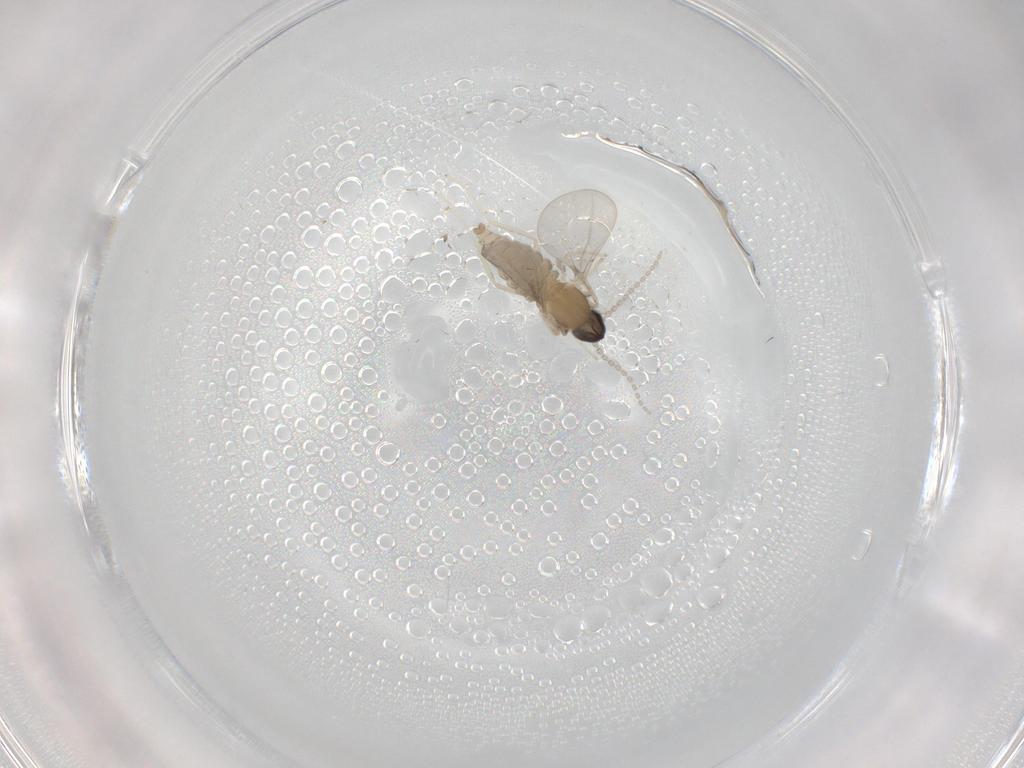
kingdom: Animalia
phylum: Arthropoda
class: Insecta
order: Diptera
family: Cecidomyiidae
